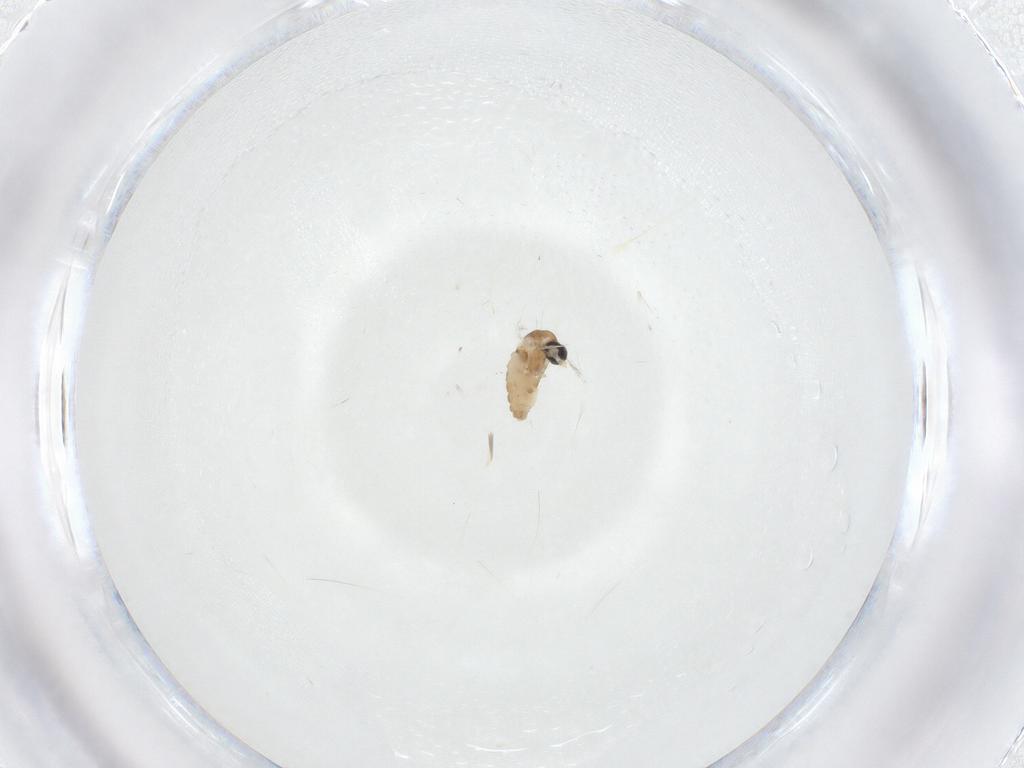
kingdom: Animalia
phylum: Arthropoda
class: Insecta
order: Diptera
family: Cecidomyiidae
